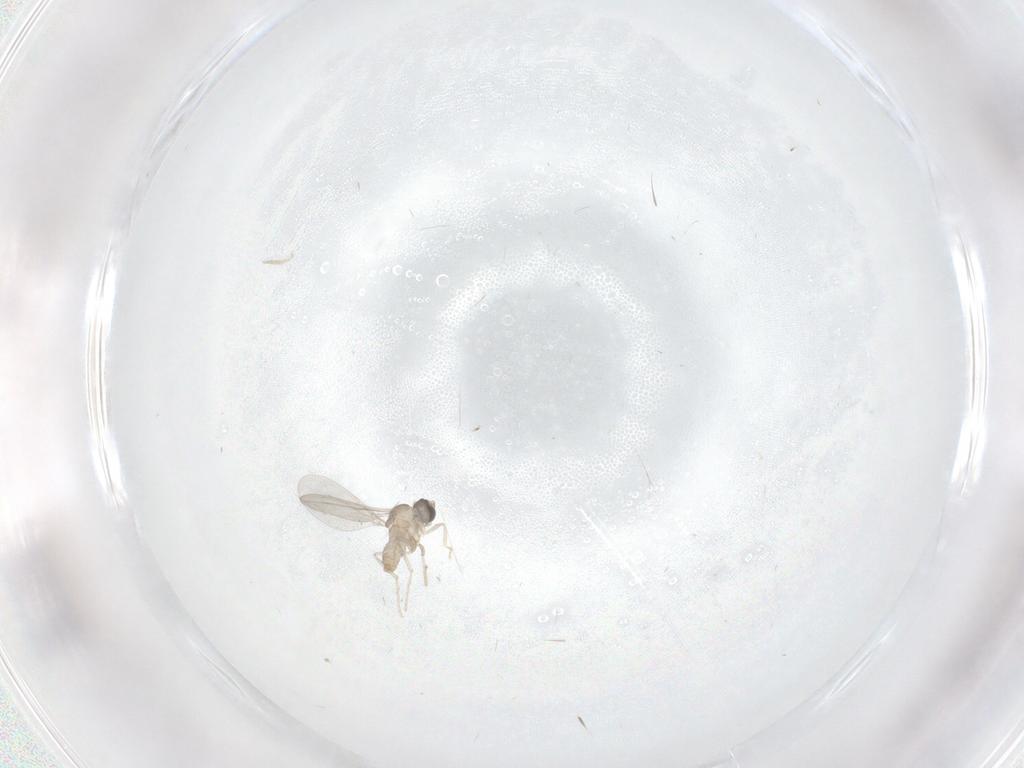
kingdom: Animalia
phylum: Arthropoda
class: Insecta
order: Diptera
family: Cecidomyiidae
